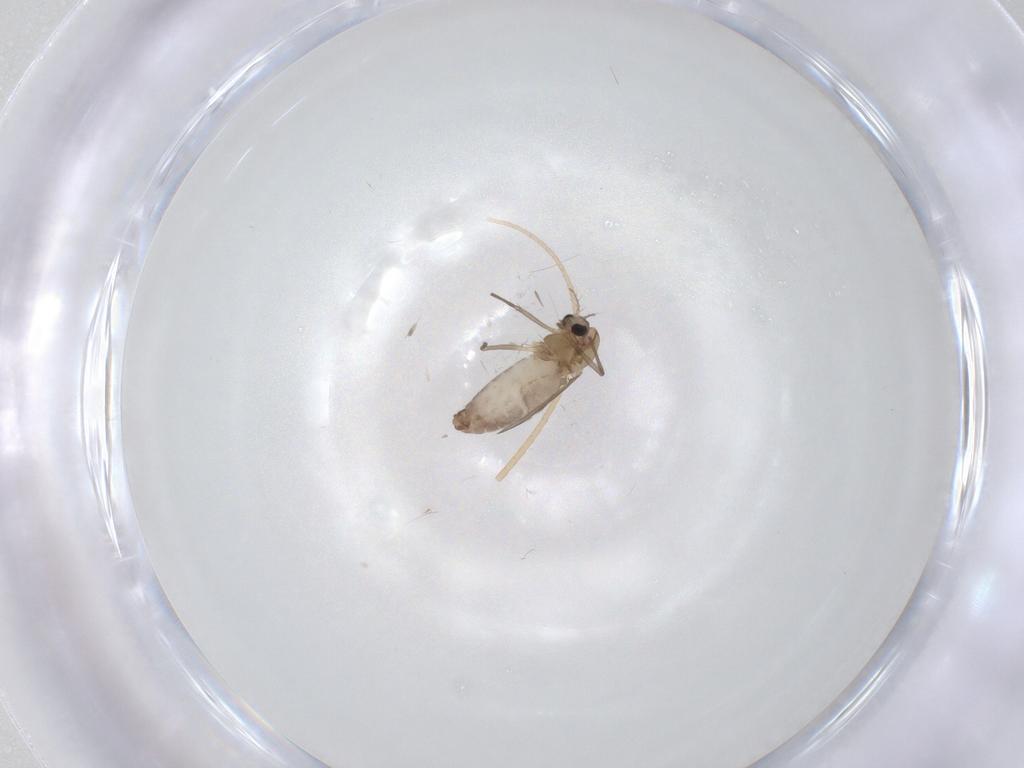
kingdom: Animalia
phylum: Arthropoda
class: Insecta
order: Diptera
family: Chironomidae
